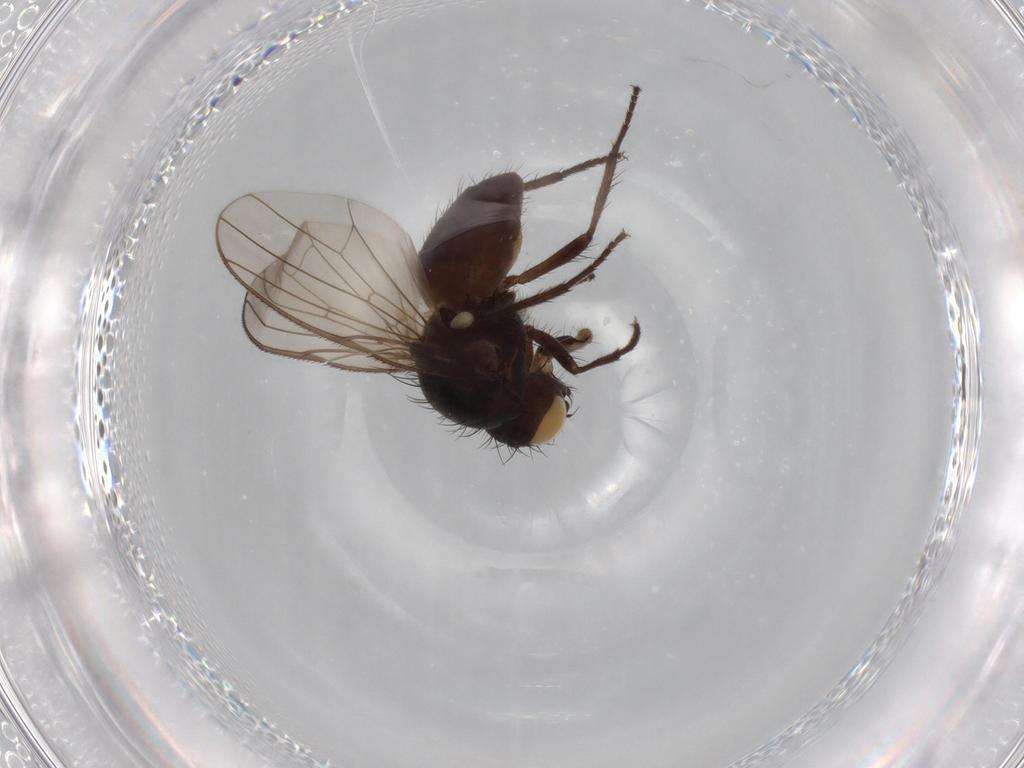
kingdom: Animalia
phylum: Arthropoda
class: Insecta
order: Diptera
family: Anthomyiidae
